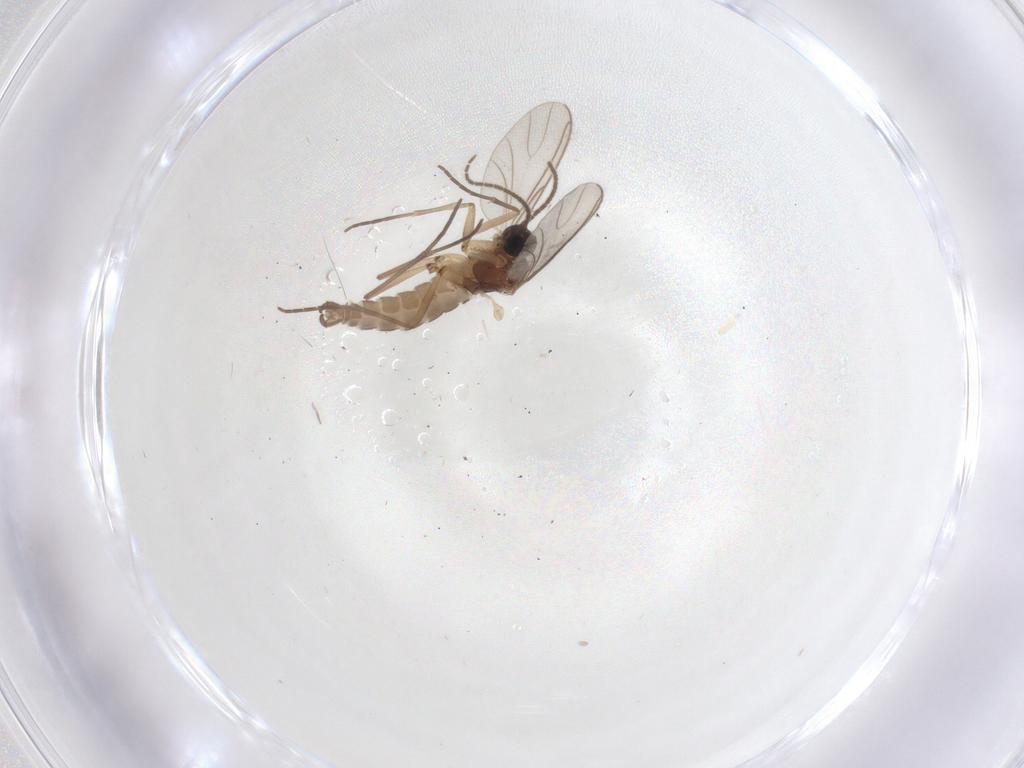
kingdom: Animalia
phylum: Arthropoda
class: Insecta
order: Diptera
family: Sciaridae
